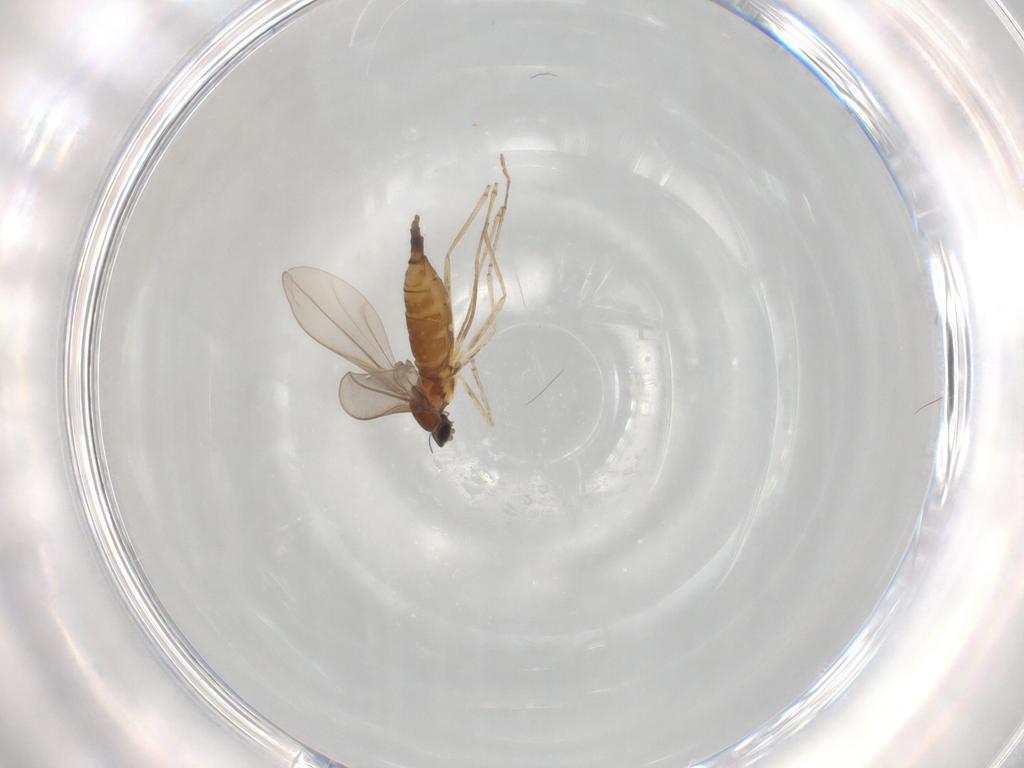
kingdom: Animalia
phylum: Arthropoda
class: Insecta
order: Diptera
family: Cecidomyiidae
